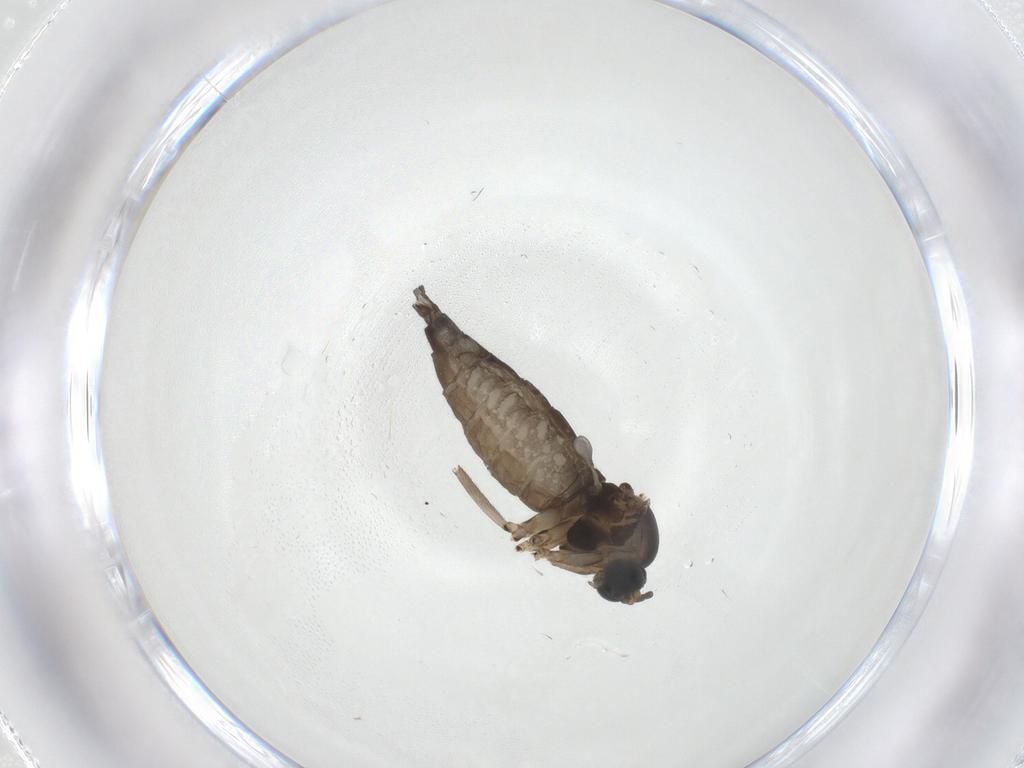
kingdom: Animalia
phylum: Arthropoda
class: Insecta
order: Diptera
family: Sciaridae
